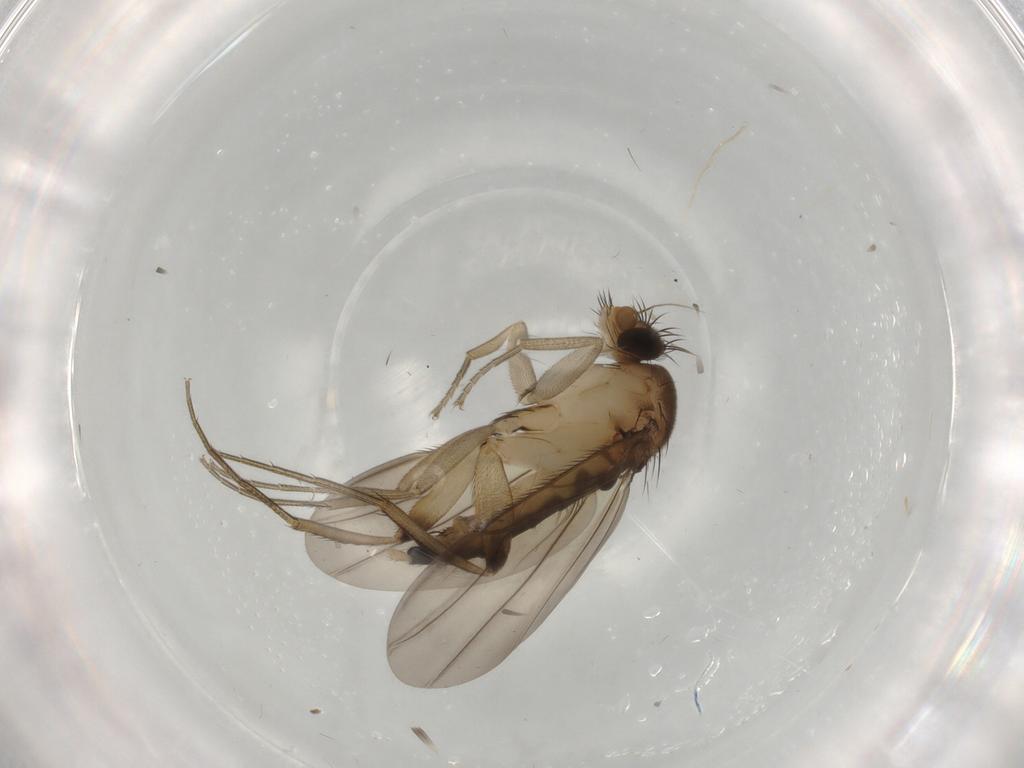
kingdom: Animalia
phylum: Arthropoda
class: Insecta
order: Diptera
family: Phoridae
